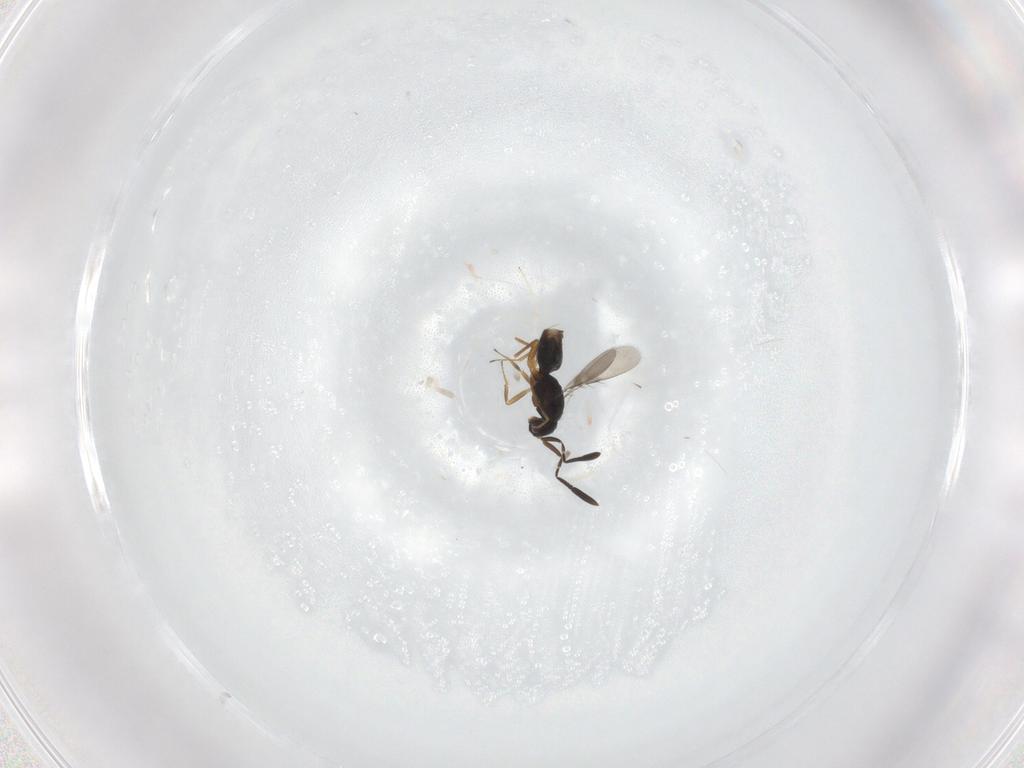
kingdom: Animalia
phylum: Arthropoda
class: Insecta
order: Hymenoptera
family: Mymaridae
